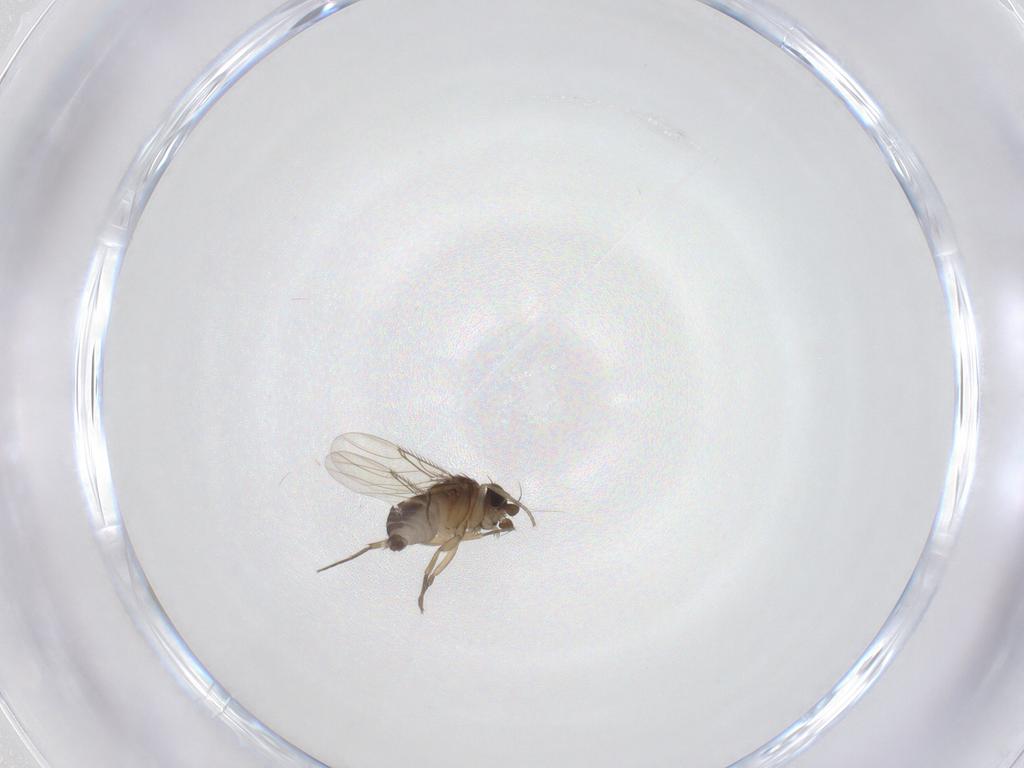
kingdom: Animalia
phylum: Arthropoda
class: Insecta
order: Diptera
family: Phoridae
